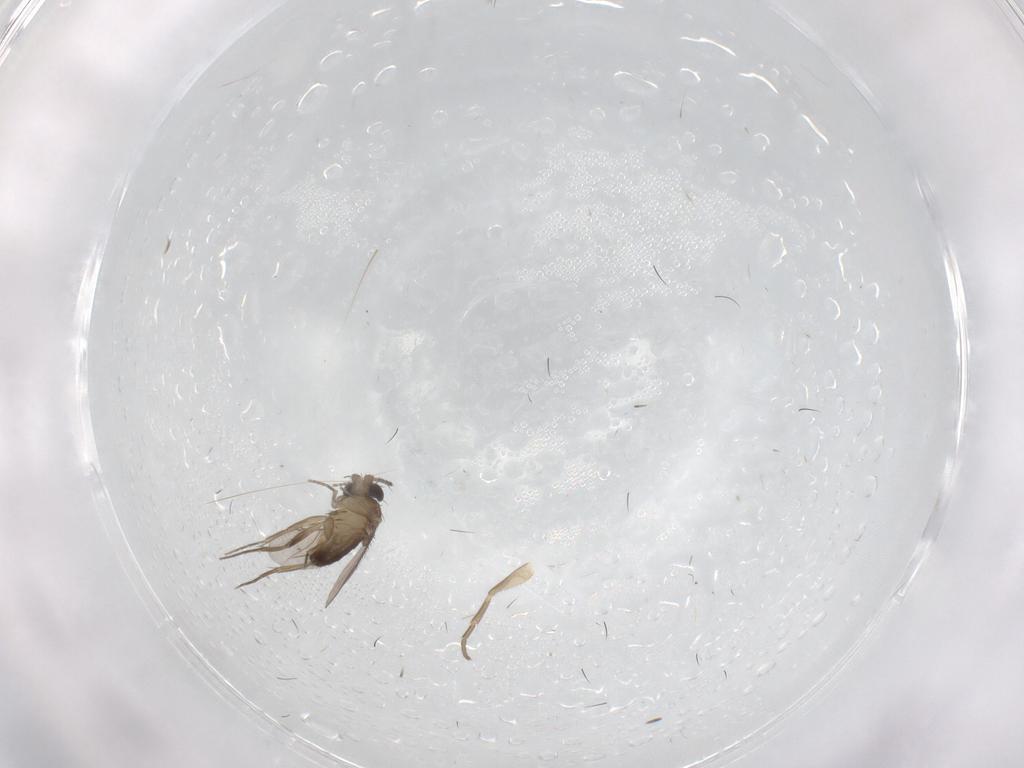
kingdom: Animalia
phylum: Arthropoda
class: Insecta
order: Diptera
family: Phoridae
